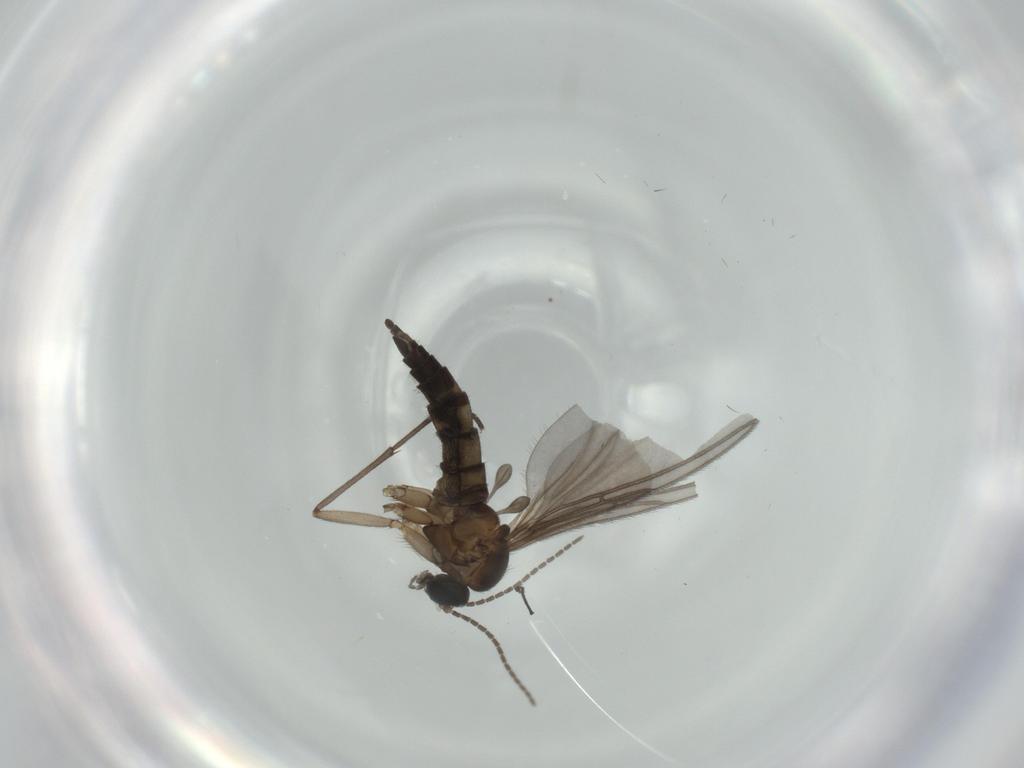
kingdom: Animalia
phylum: Arthropoda
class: Insecta
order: Diptera
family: Sciaridae
